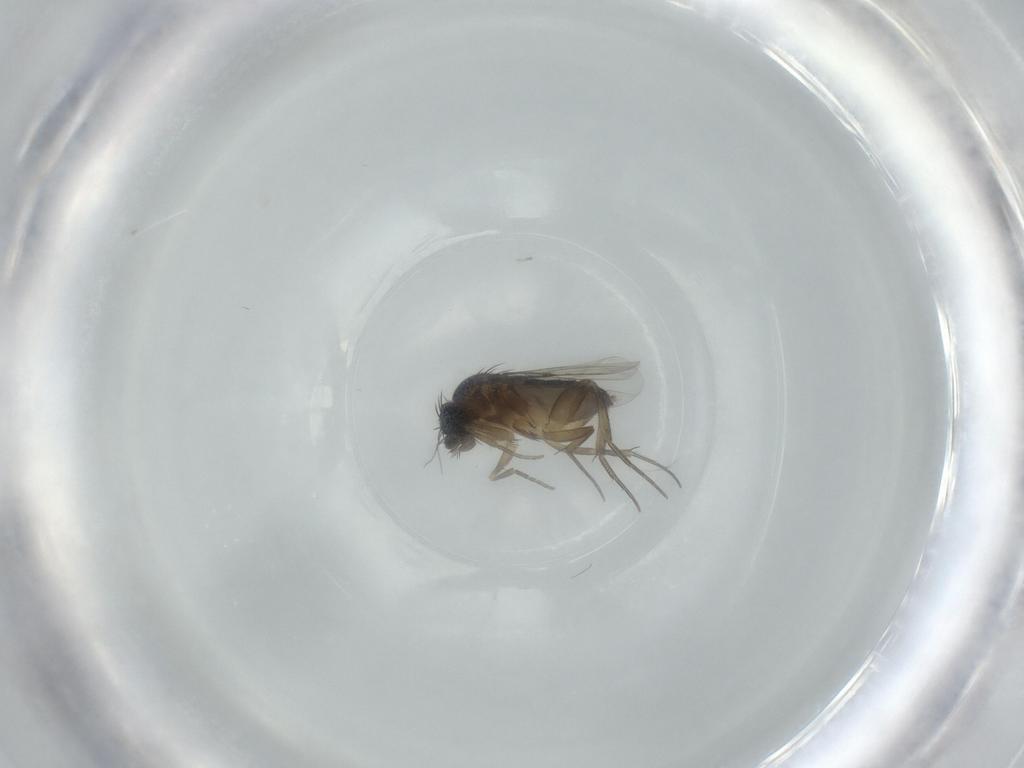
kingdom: Animalia
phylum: Arthropoda
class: Insecta
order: Diptera
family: Phoridae
